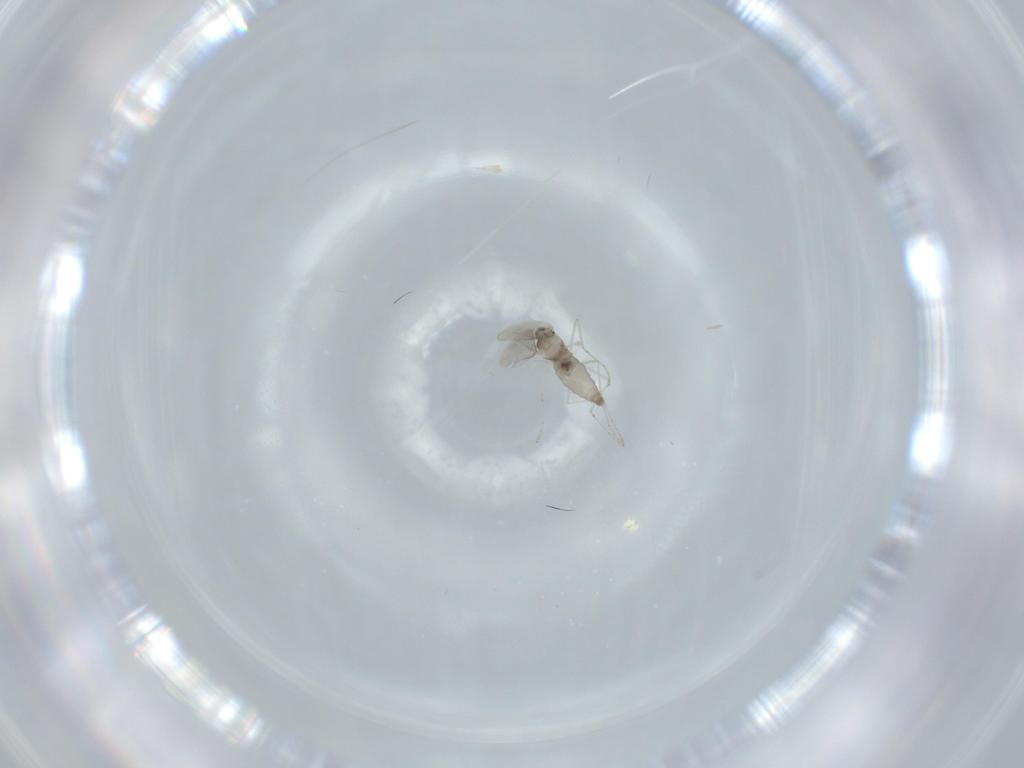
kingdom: Animalia
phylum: Arthropoda
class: Insecta
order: Diptera
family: Cecidomyiidae
